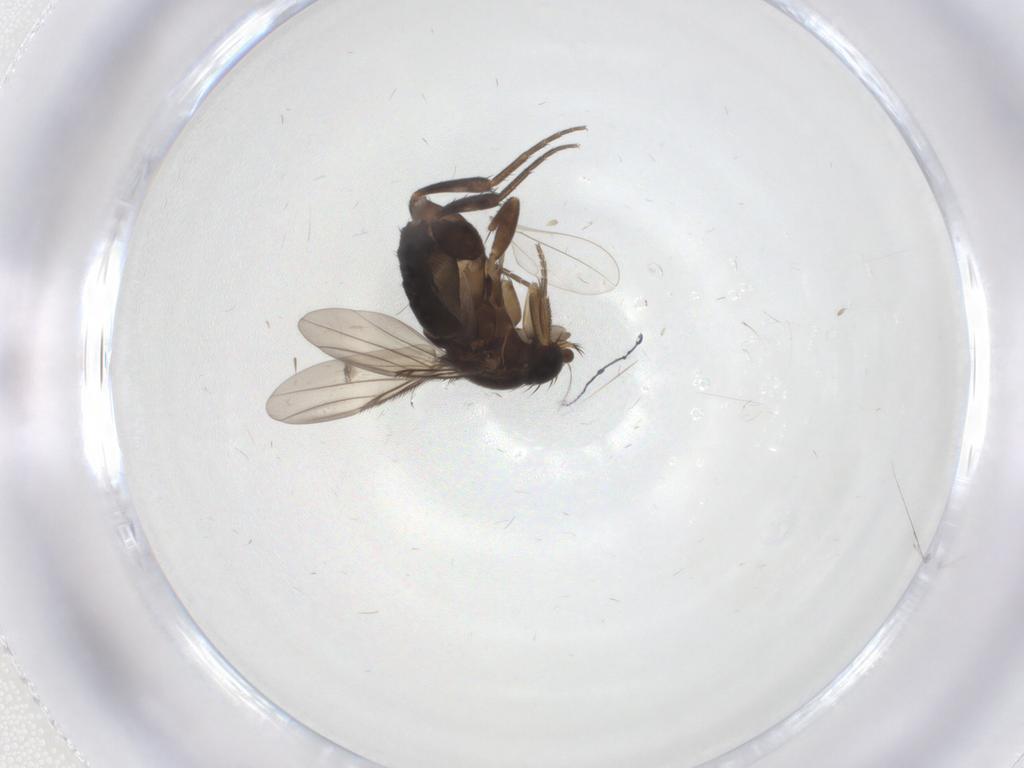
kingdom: Animalia
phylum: Arthropoda
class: Insecta
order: Diptera
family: Phoridae
